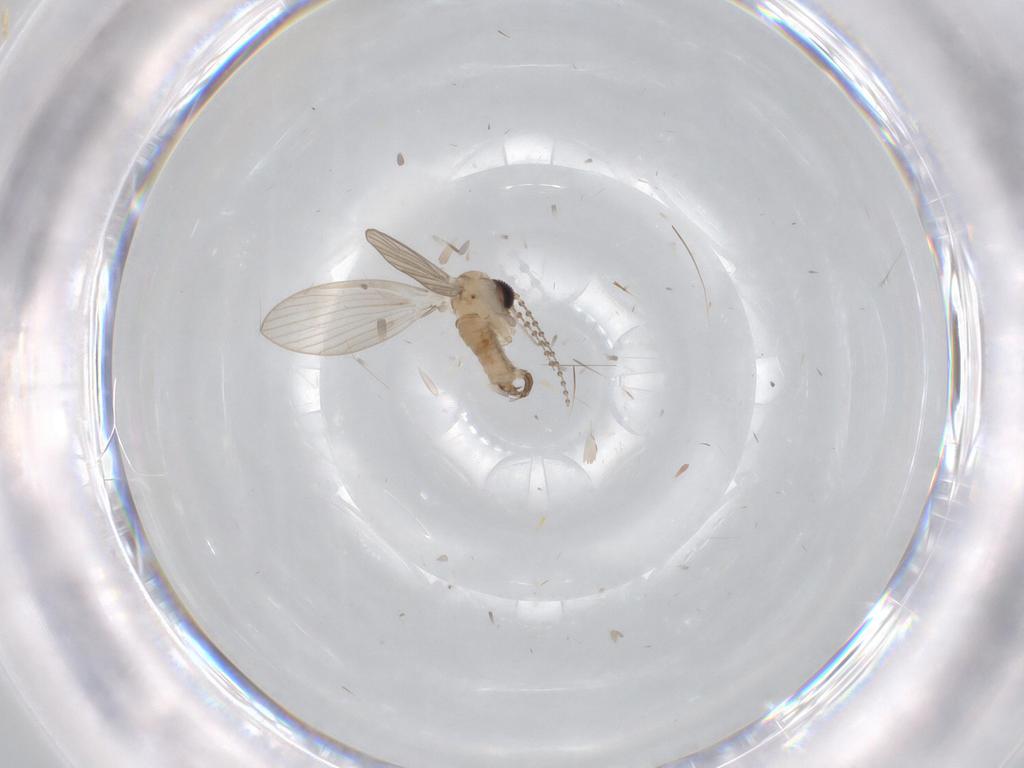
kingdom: Animalia
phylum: Arthropoda
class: Insecta
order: Diptera
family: Psychodidae
